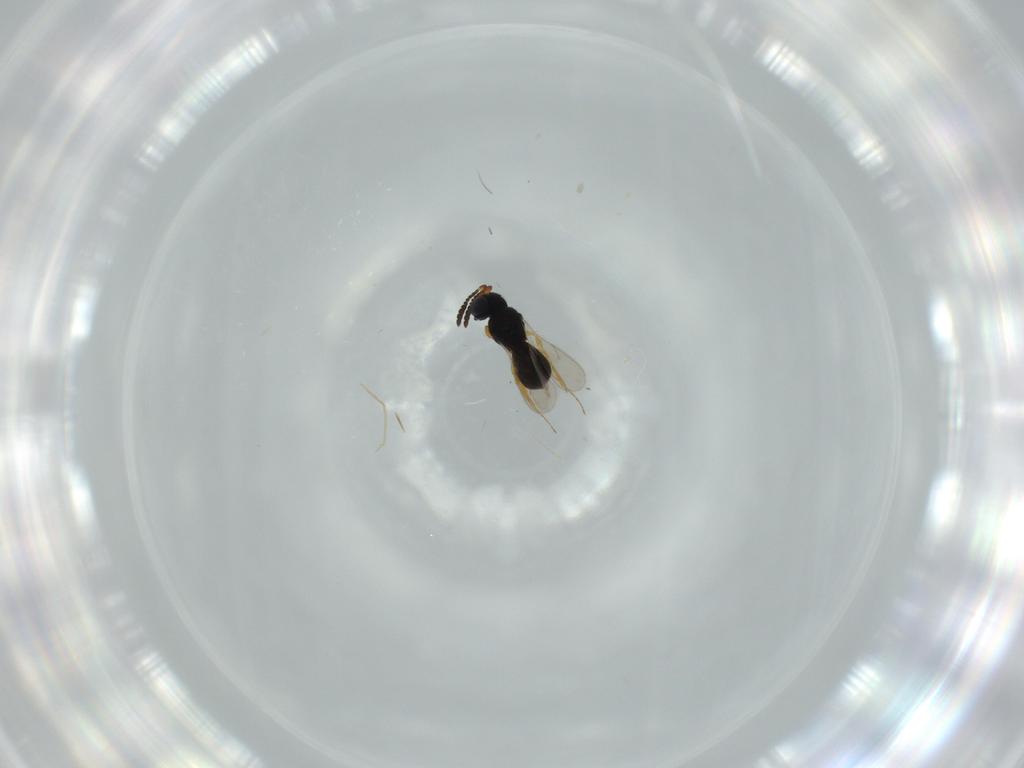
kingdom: Animalia
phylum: Arthropoda
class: Insecta
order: Hymenoptera
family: Scelionidae
